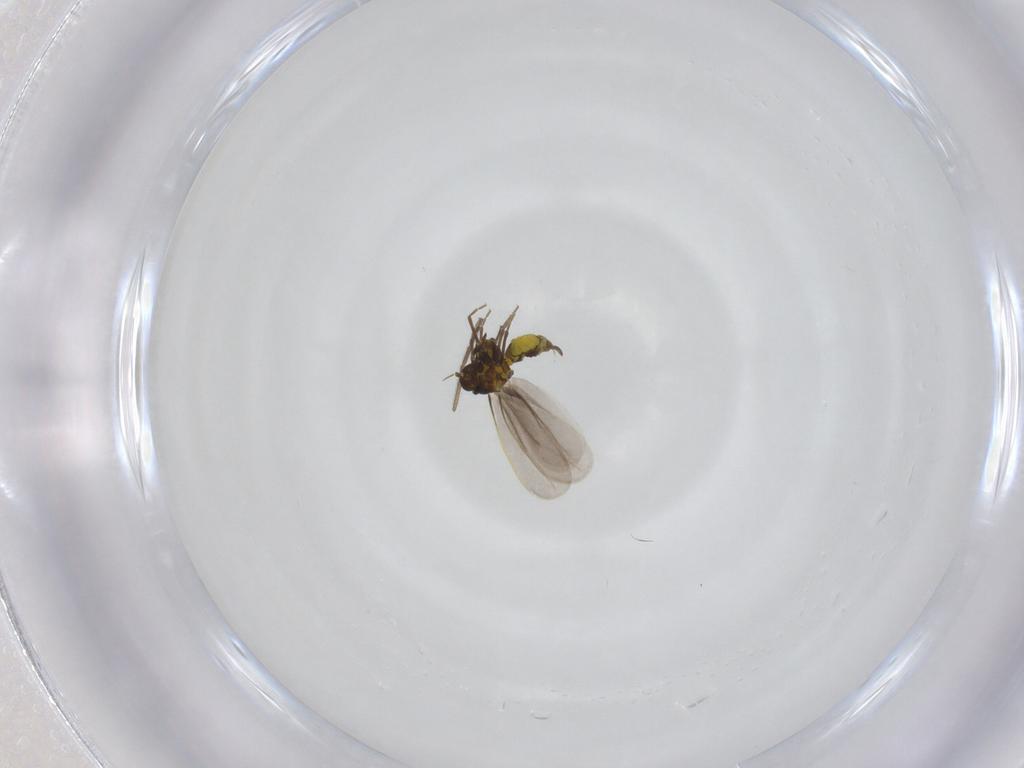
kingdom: Animalia
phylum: Arthropoda
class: Insecta
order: Hemiptera
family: Aleyrodidae
